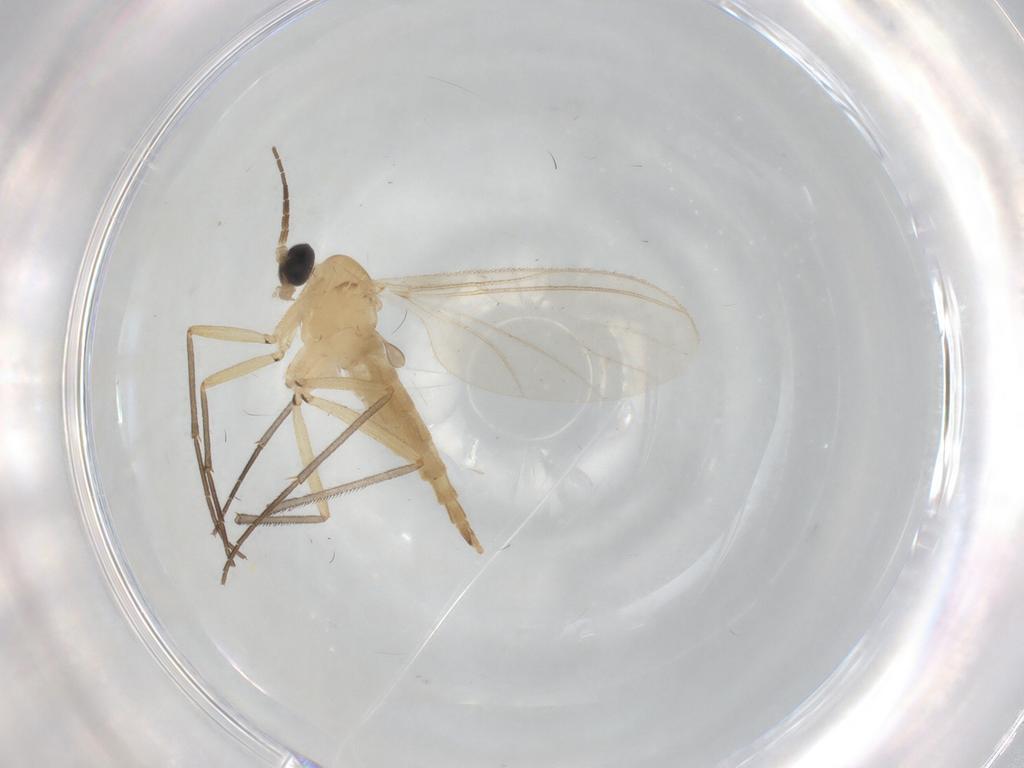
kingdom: Animalia
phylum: Arthropoda
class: Insecta
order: Diptera
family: Sciaridae
